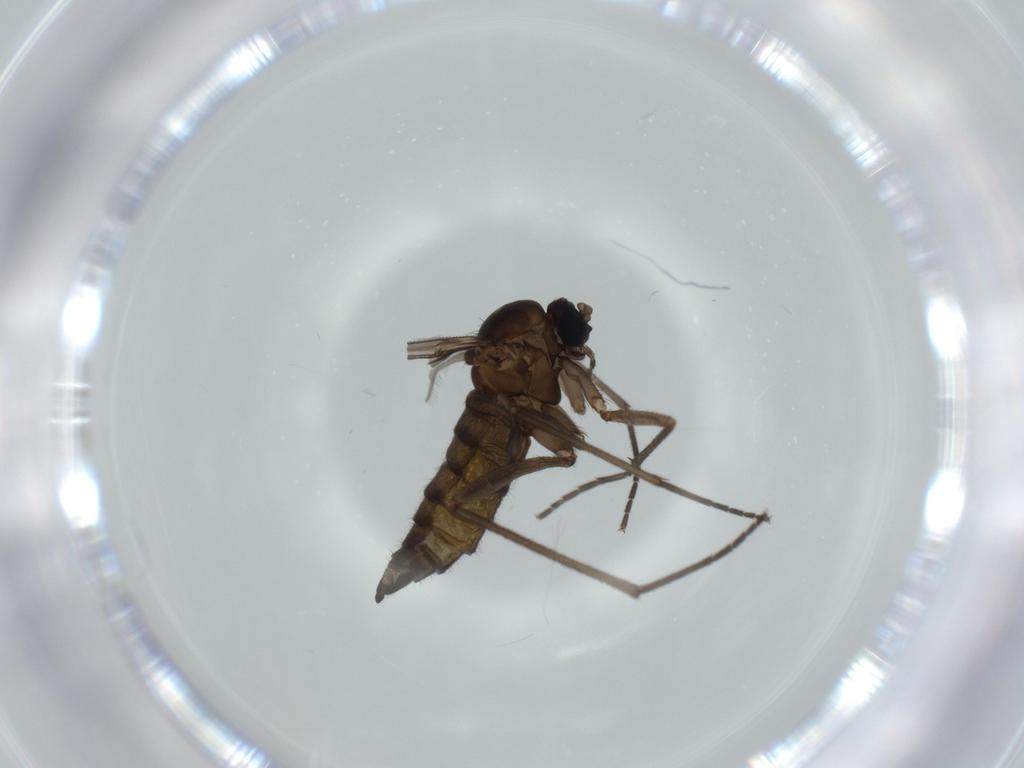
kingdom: Animalia
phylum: Arthropoda
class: Insecta
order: Diptera
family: Sciaridae
